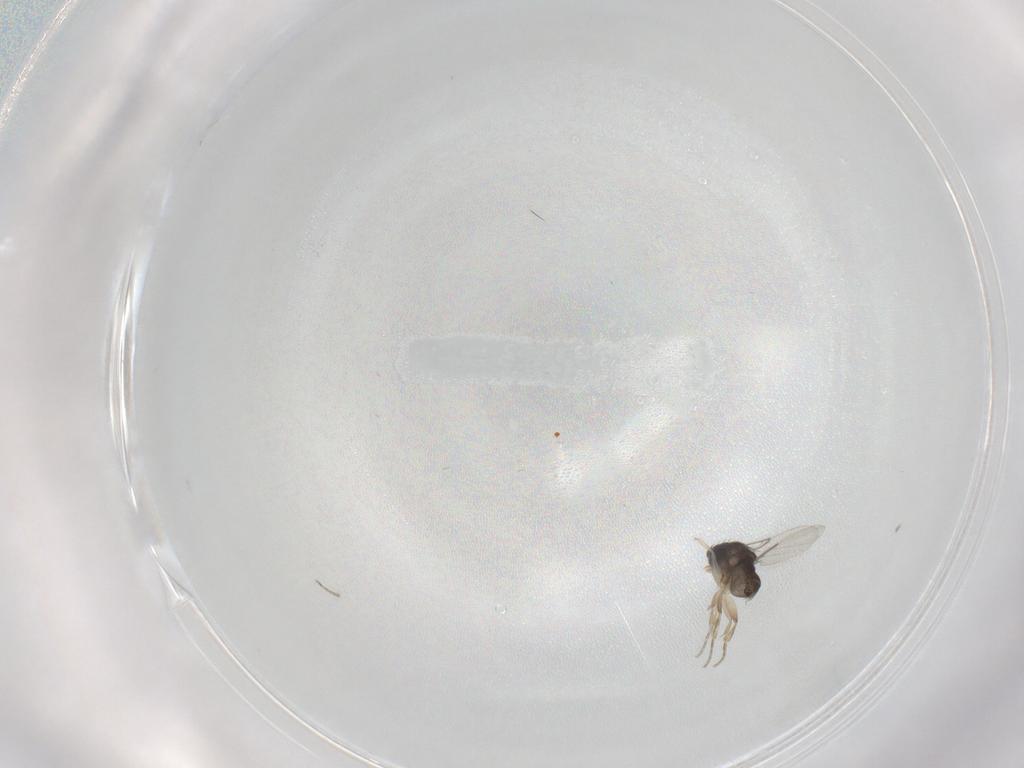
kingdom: Animalia
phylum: Arthropoda
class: Insecta
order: Diptera
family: Phoridae
